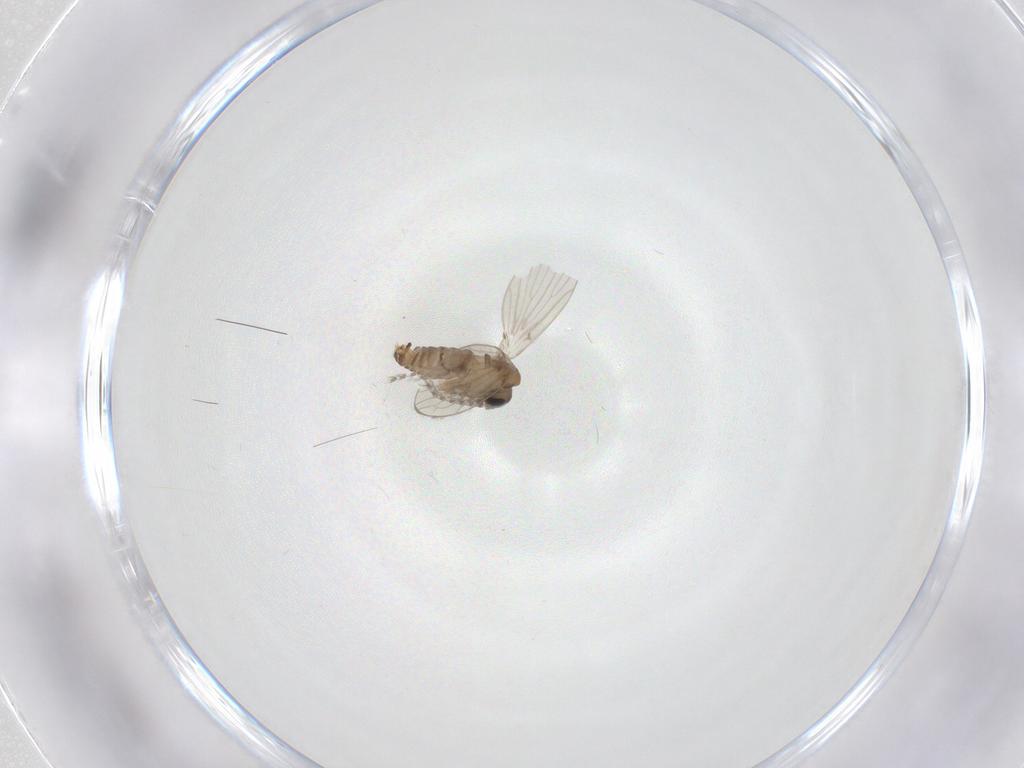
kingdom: Animalia
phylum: Arthropoda
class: Insecta
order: Diptera
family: Cecidomyiidae
